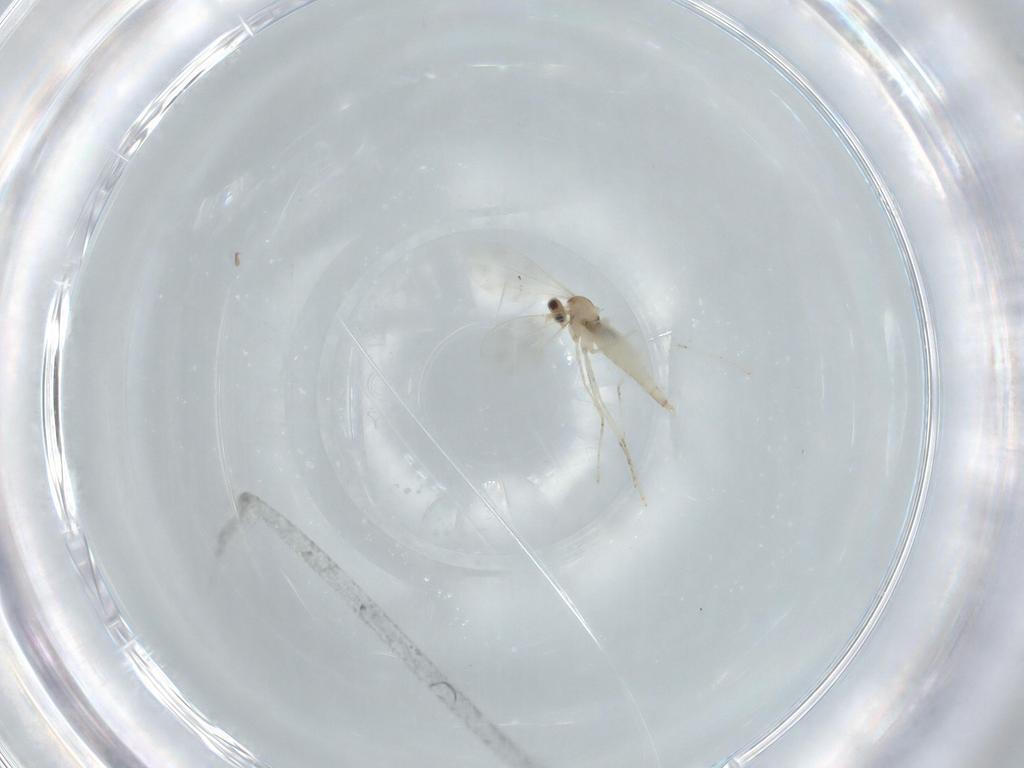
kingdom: Animalia
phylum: Arthropoda
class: Insecta
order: Diptera
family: Cecidomyiidae
